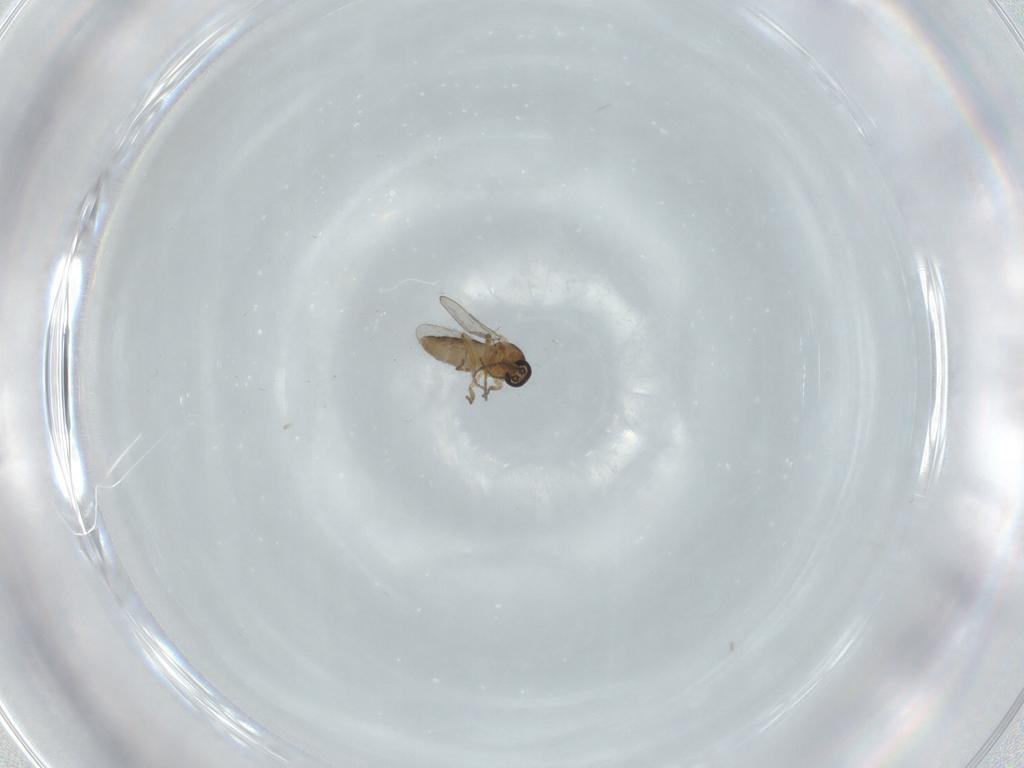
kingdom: Animalia
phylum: Arthropoda
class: Insecta
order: Diptera
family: Ceratopogonidae
